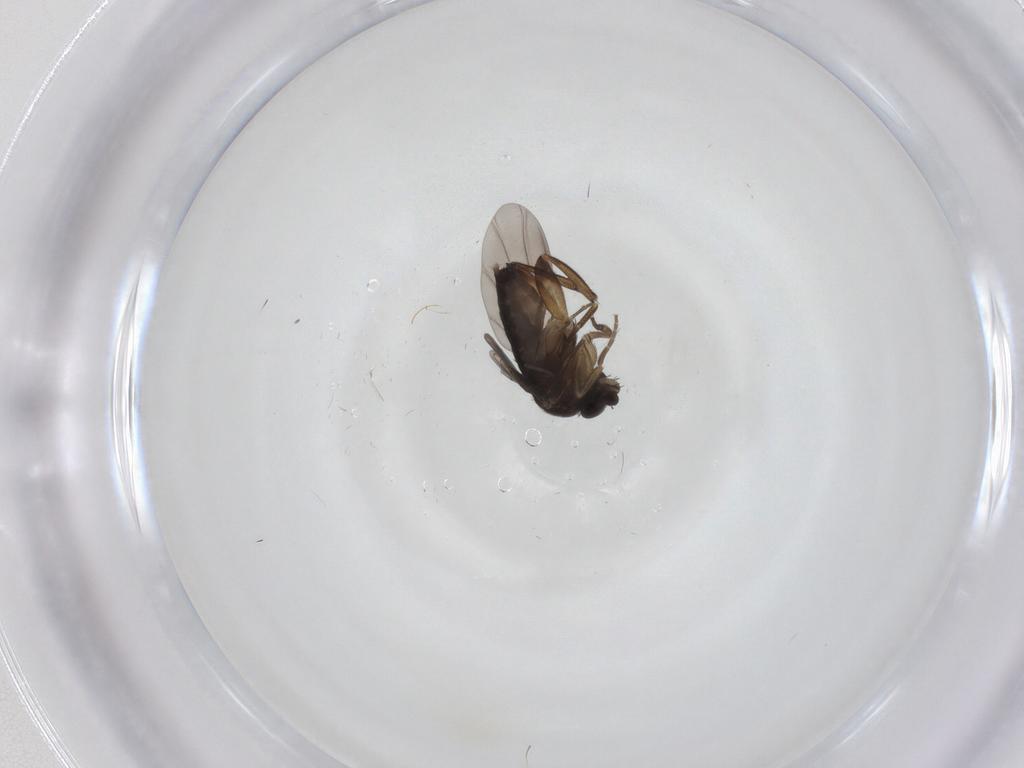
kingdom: Animalia
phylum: Arthropoda
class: Insecta
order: Diptera
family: Phoridae
